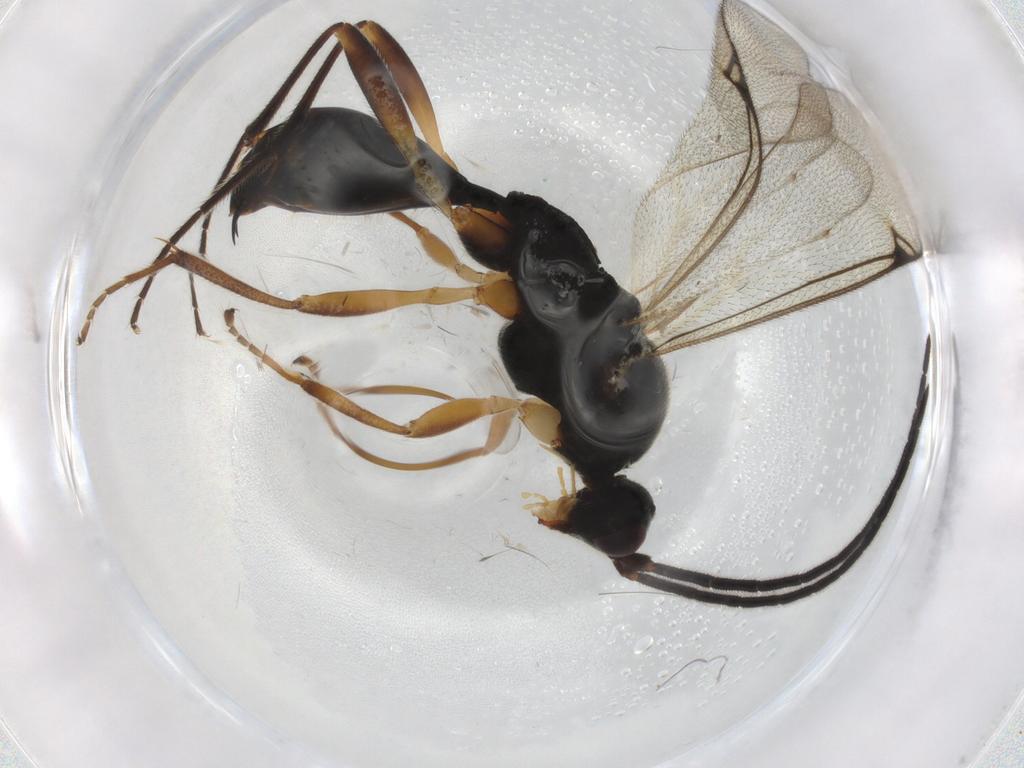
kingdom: Animalia
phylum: Arthropoda
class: Insecta
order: Hymenoptera
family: Proctotrupidae
